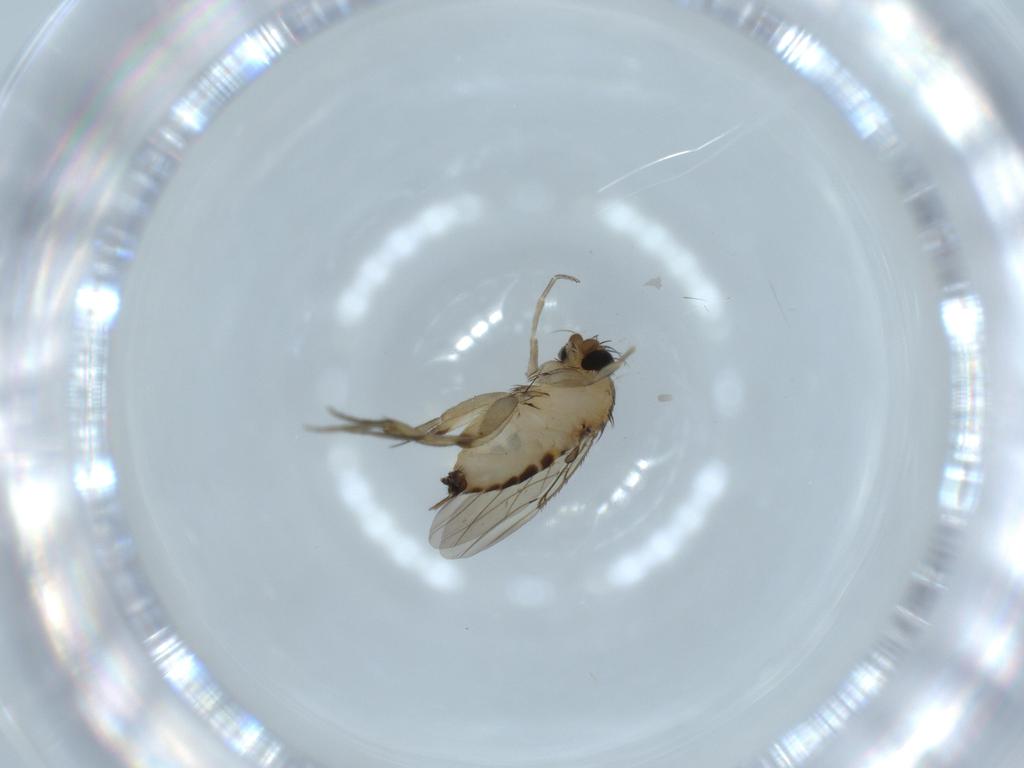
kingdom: Animalia
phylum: Arthropoda
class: Insecta
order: Diptera
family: Phoridae
